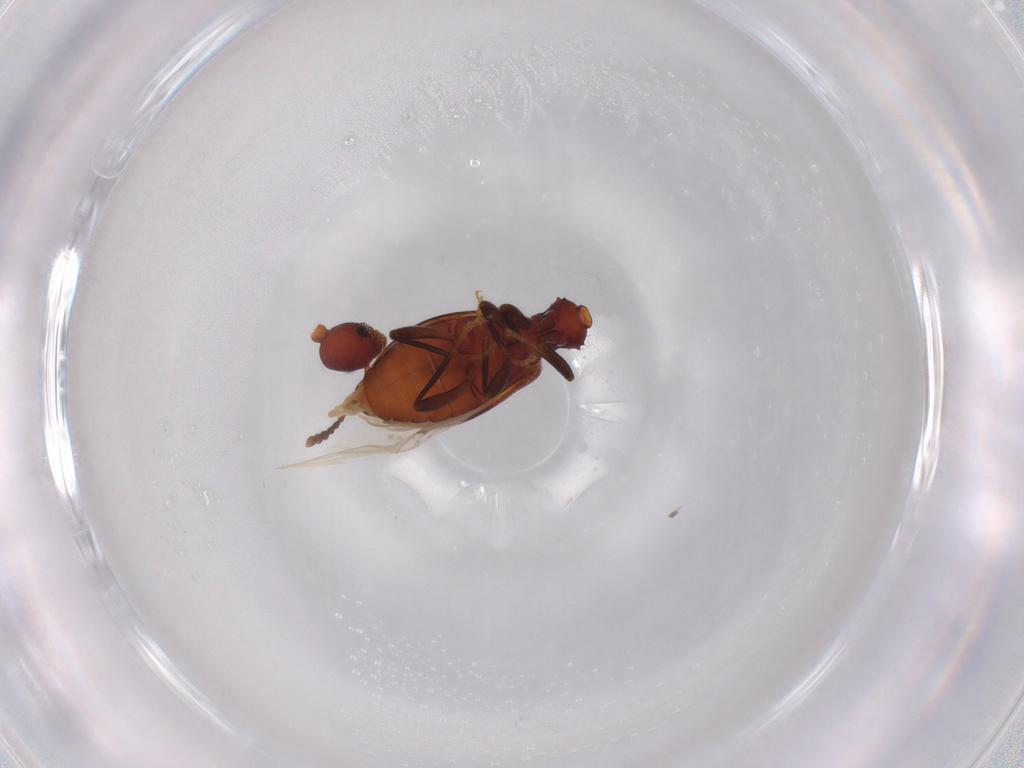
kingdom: Animalia
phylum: Arthropoda
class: Insecta
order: Coleoptera
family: Anthicidae
